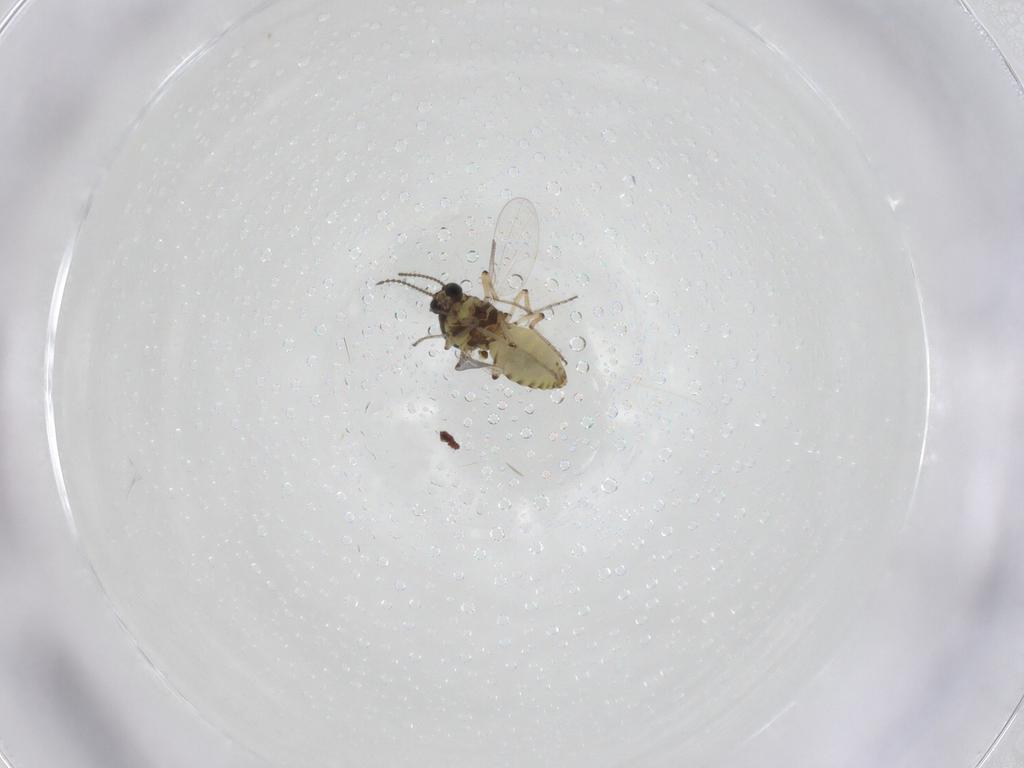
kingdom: Animalia
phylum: Arthropoda
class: Insecta
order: Diptera
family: Ceratopogonidae
